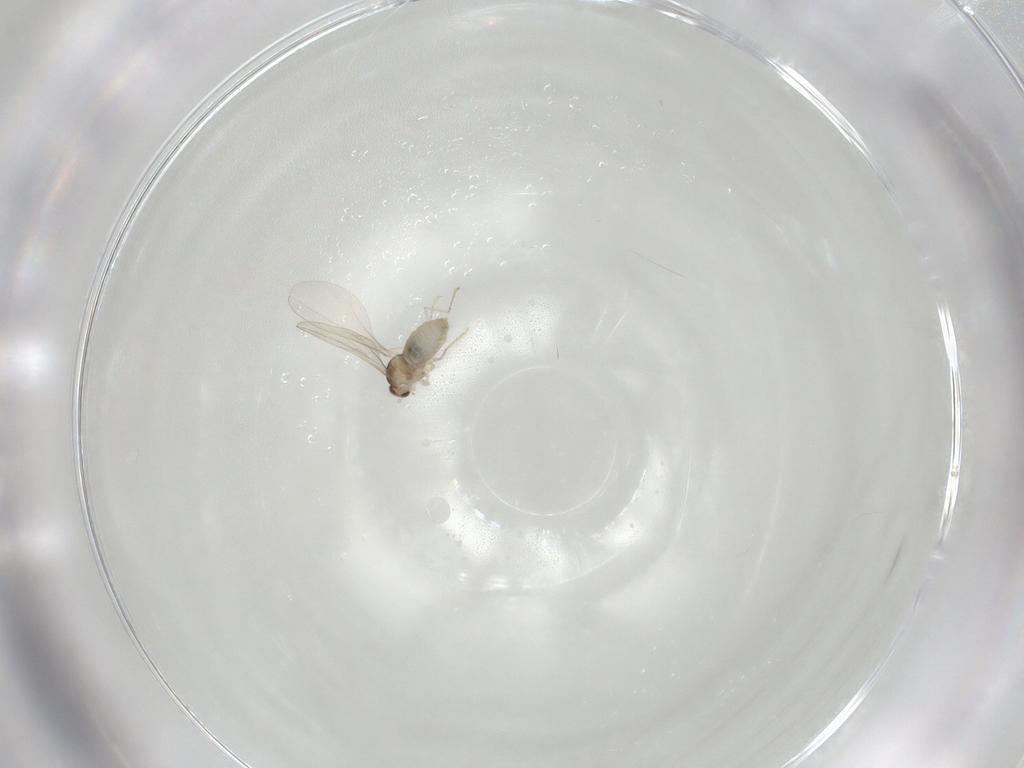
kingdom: Animalia
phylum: Arthropoda
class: Insecta
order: Diptera
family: Cecidomyiidae
